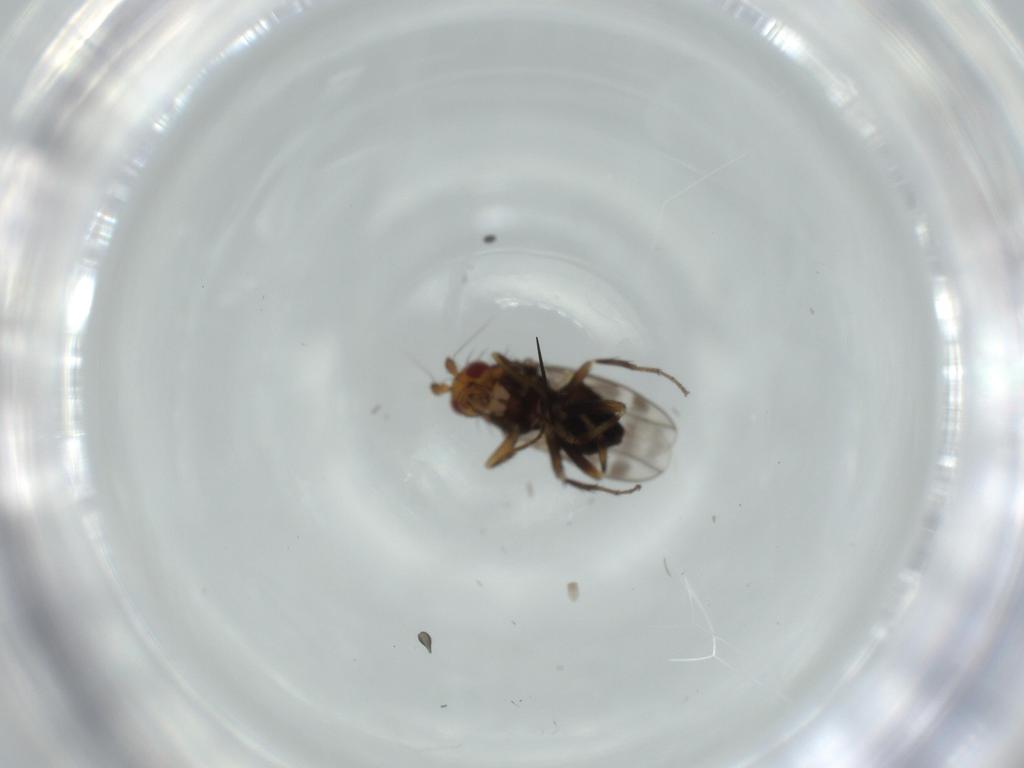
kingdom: Animalia
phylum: Arthropoda
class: Insecta
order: Diptera
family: Sphaeroceridae
